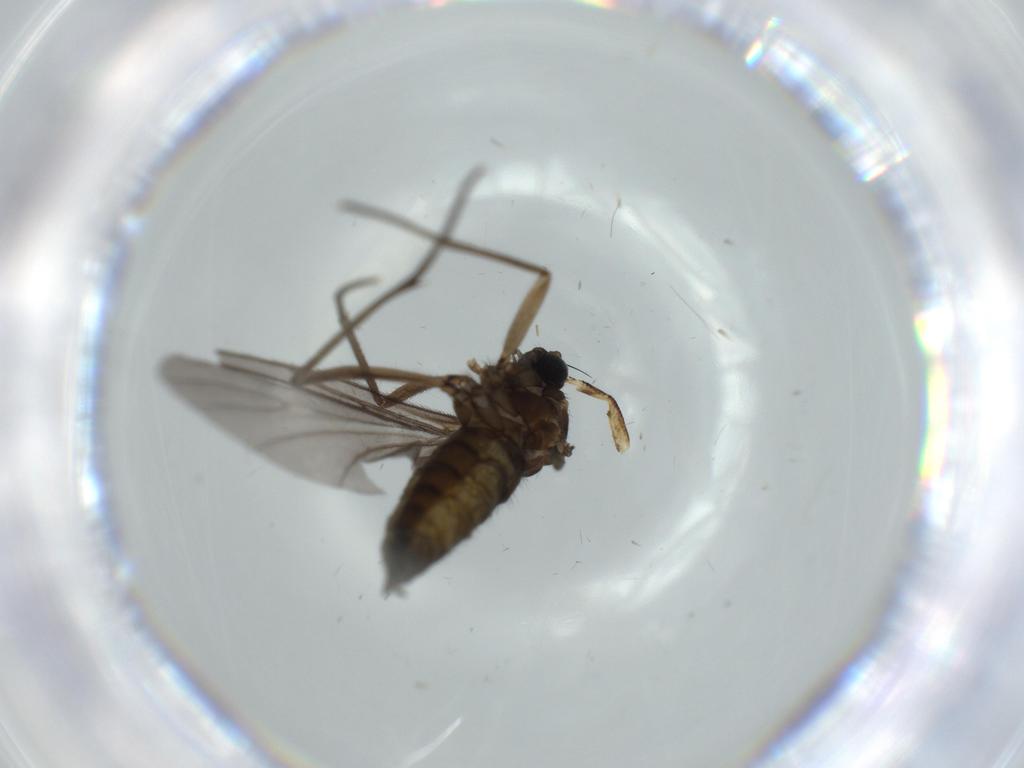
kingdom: Animalia
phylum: Arthropoda
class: Insecta
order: Diptera
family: Sciaridae
